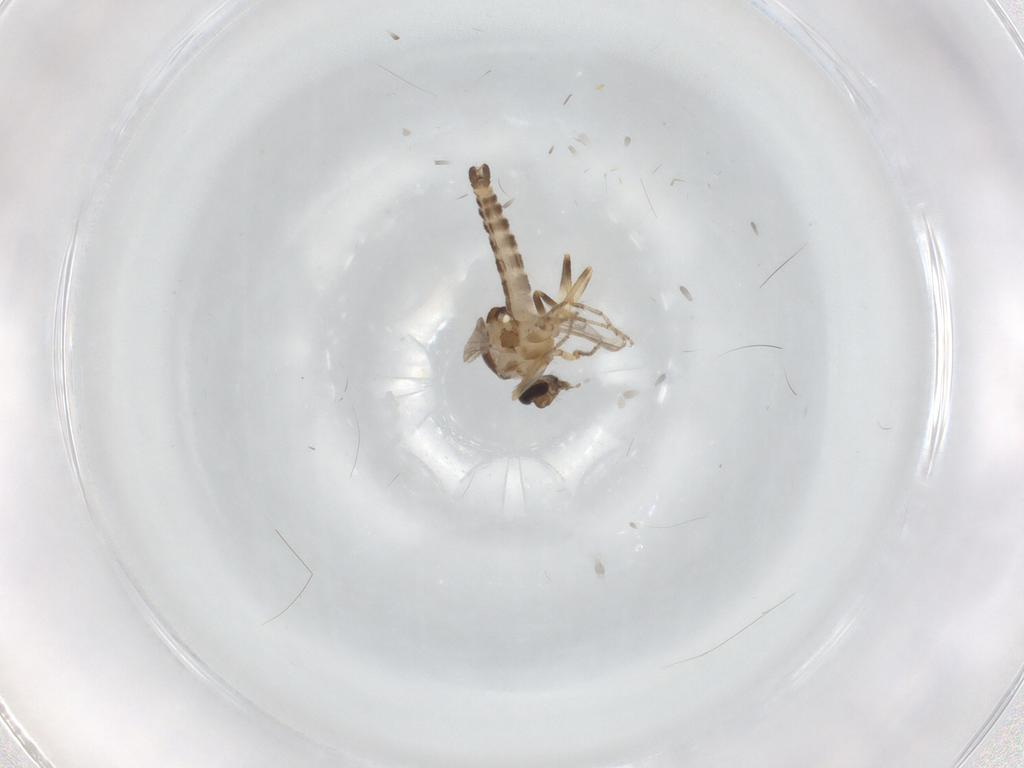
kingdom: Animalia
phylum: Arthropoda
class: Insecta
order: Diptera
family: Ceratopogonidae
